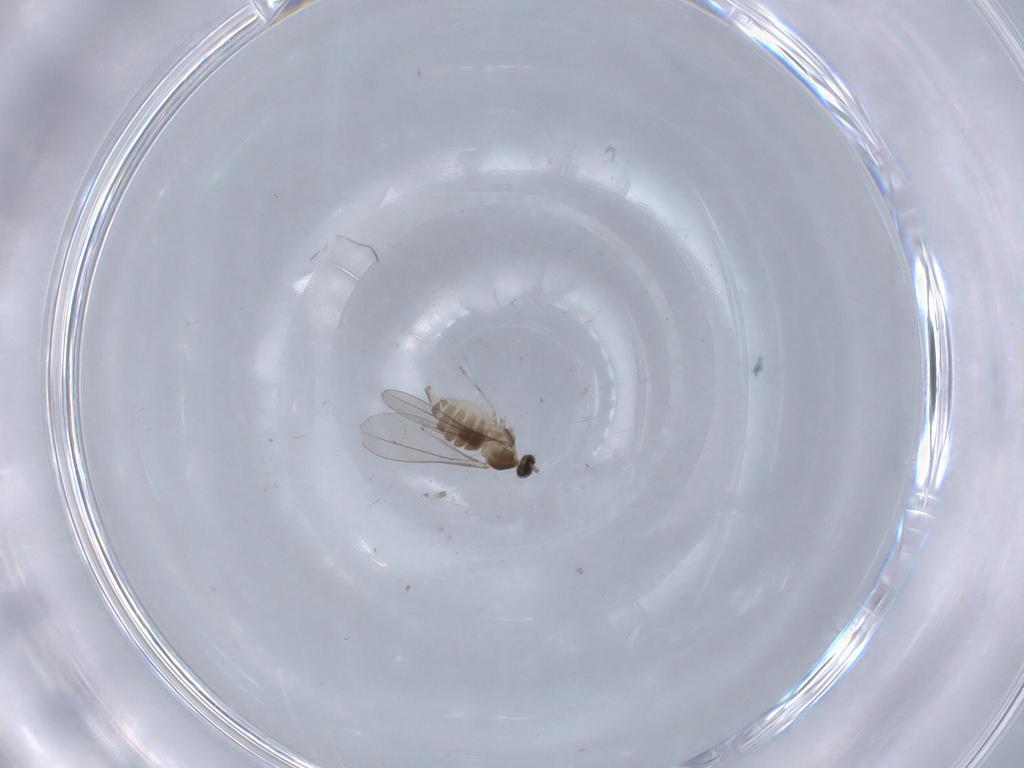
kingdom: Animalia
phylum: Arthropoda
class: Insecta
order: Diptera
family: Cecidomyiidae
